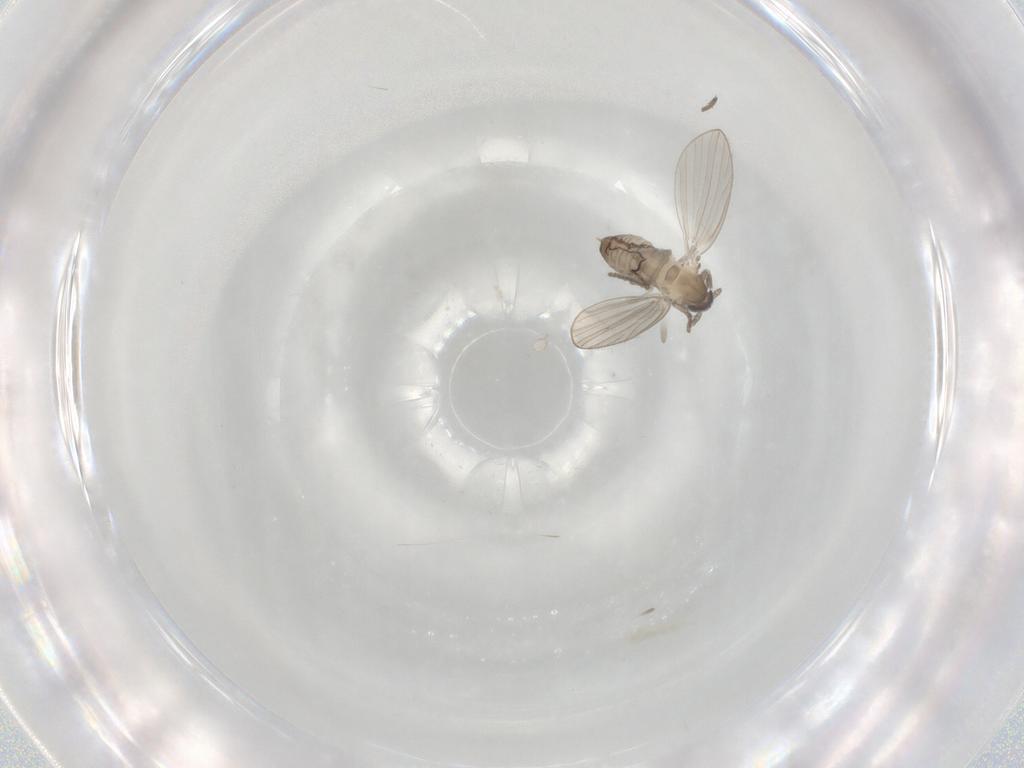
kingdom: Animalia
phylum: Arthropoda
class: Insecta
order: Diptera
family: Psychodidae
